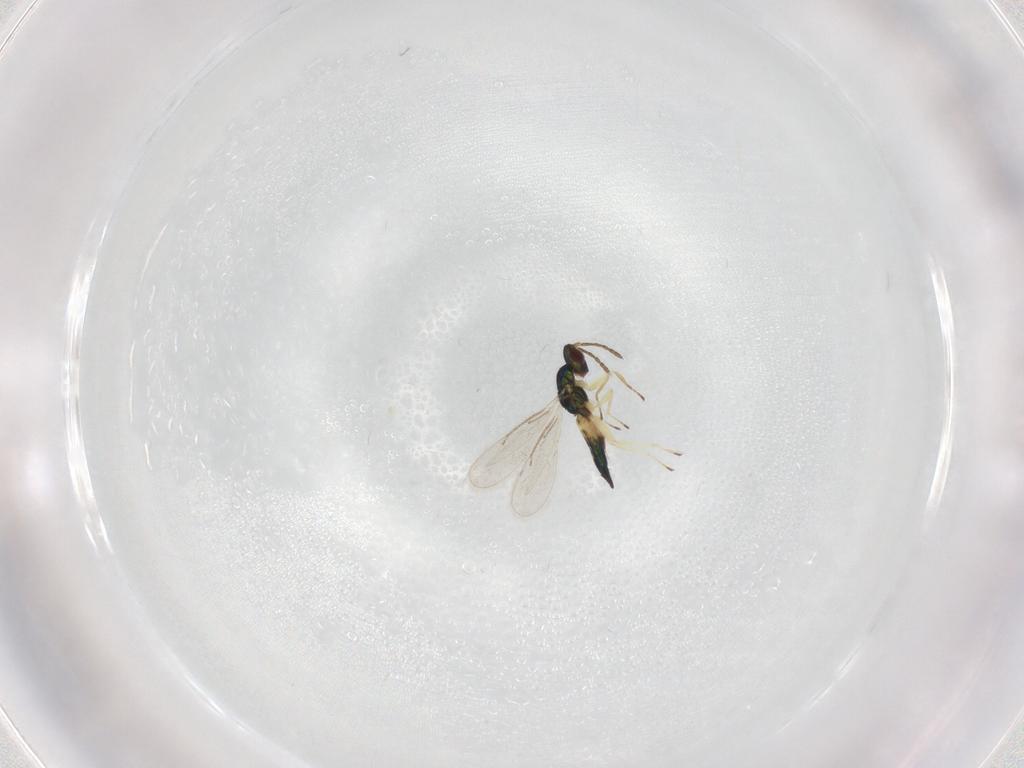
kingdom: Animalia
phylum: Arthropoda
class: Insecta
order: Hymenoptera
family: Eulophidae
